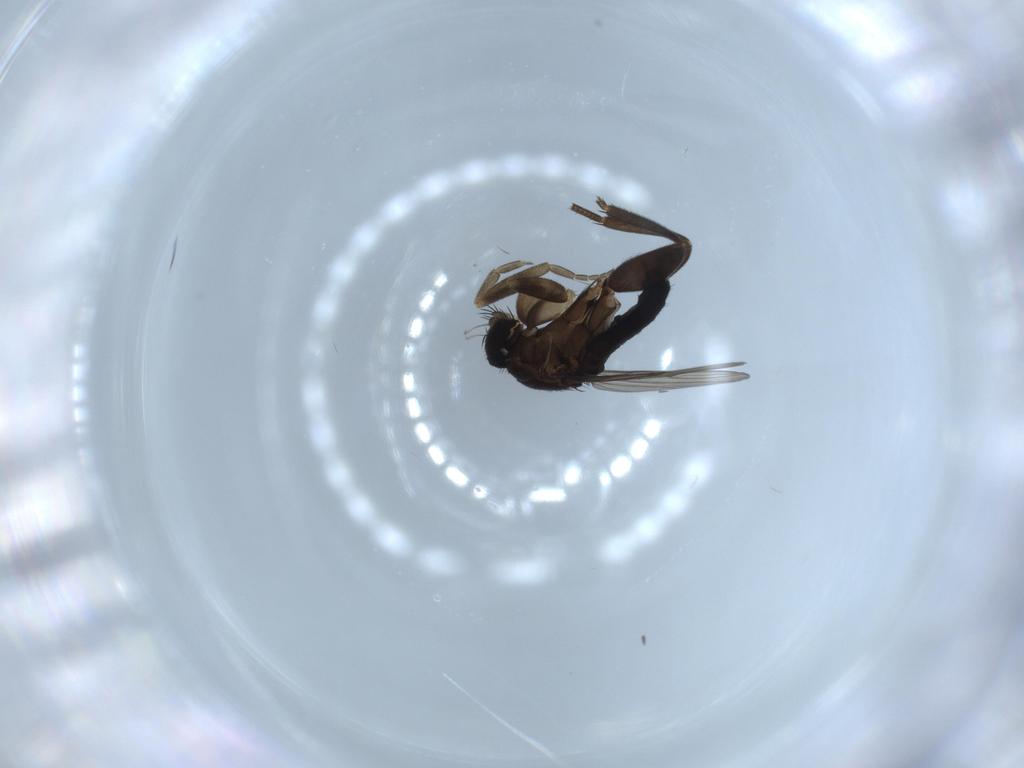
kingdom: Animalia
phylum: Arthropoda
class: Insecta
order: Diptera
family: Phoridae
